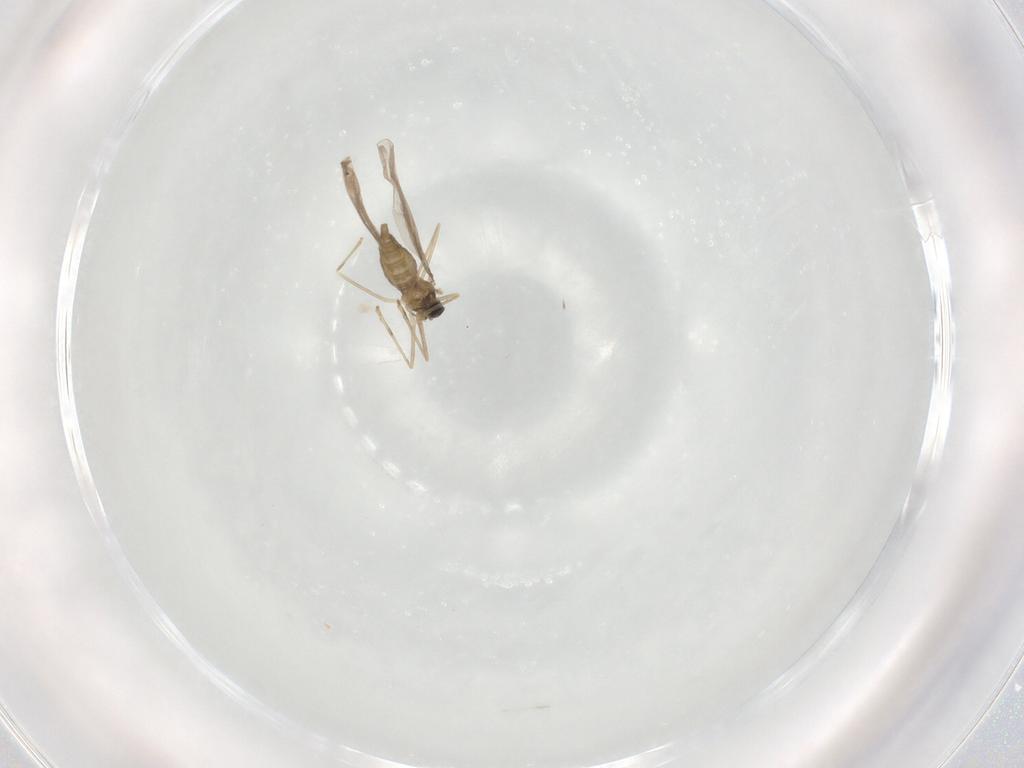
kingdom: Animalia
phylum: Arthropoda
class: Insecta
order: Diptera
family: Cecidomyiidae
